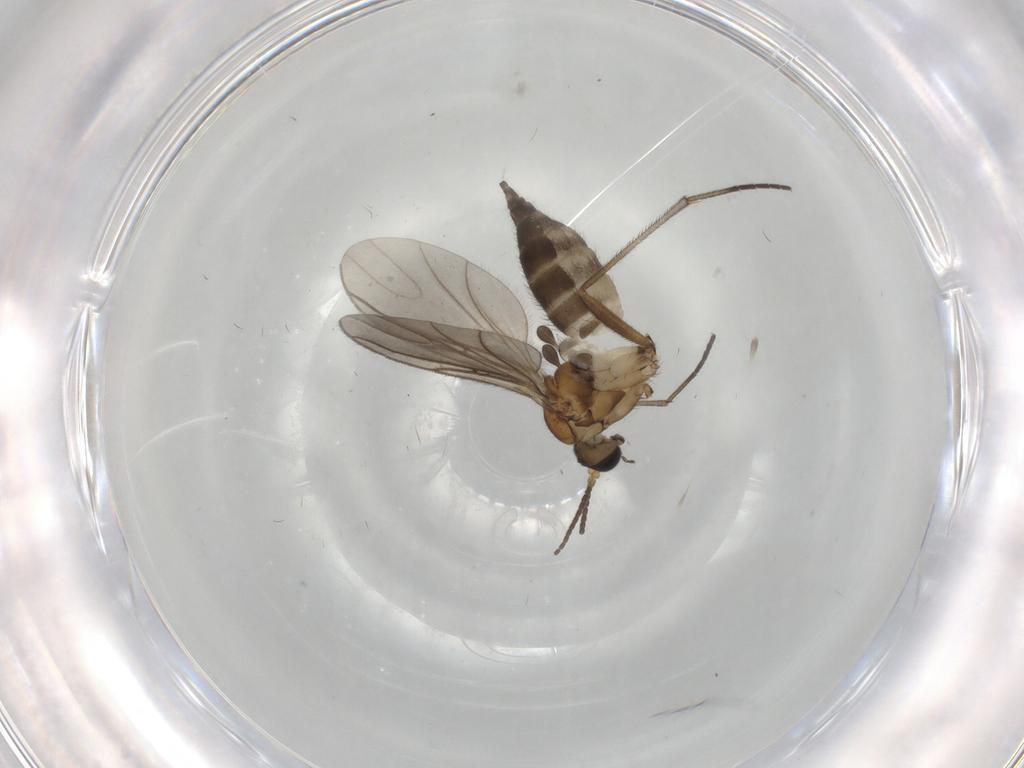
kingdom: Animalia
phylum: Arthropoda
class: Insecta
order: Diptera
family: Sciaridae
